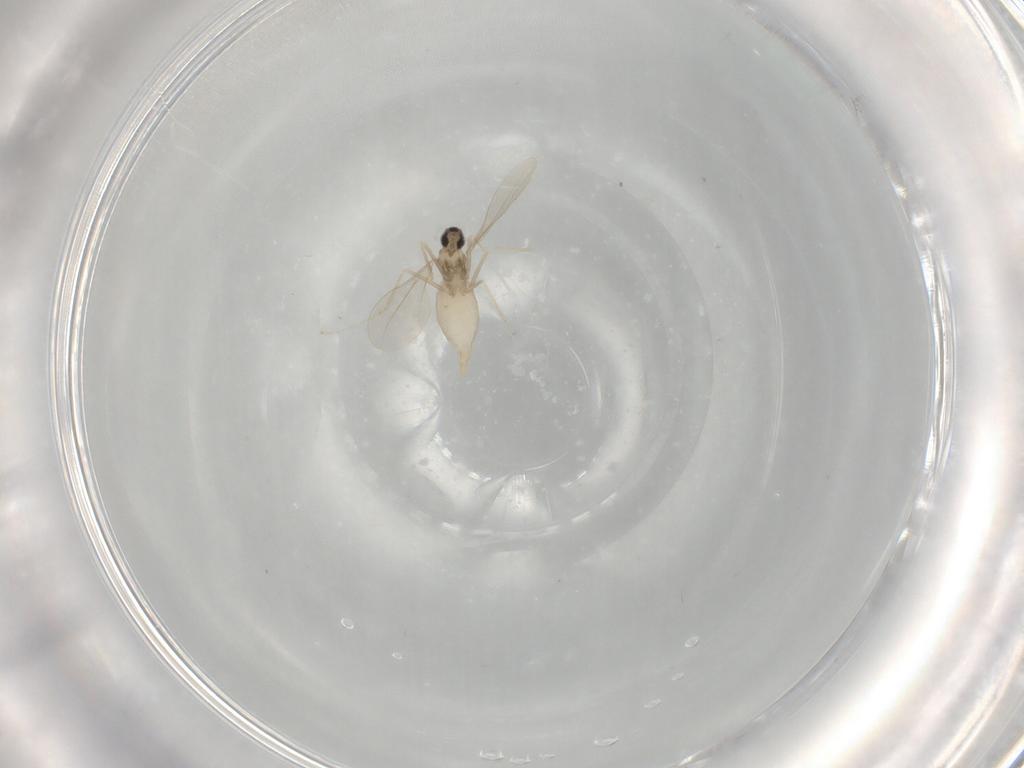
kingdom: Animalia
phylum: Arthropoda
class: Insecta
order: Diptera
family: Cecidomyiidae
